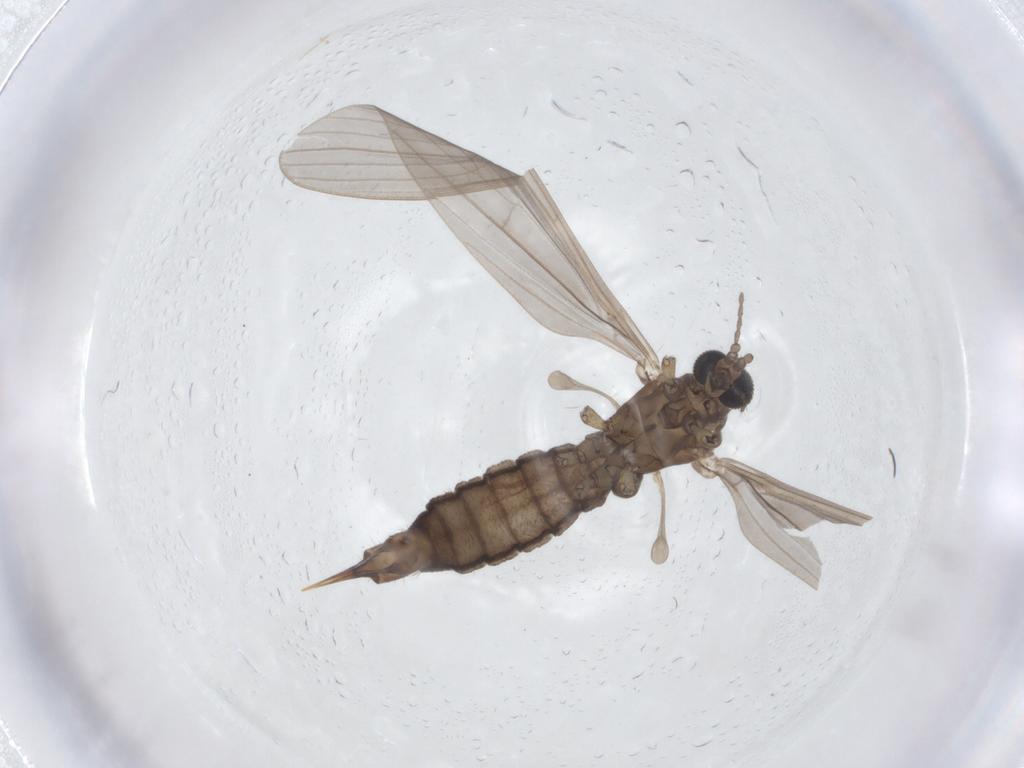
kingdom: Animalia
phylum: Arthropoda
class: Insecta
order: Diptera
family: Limoniidae
